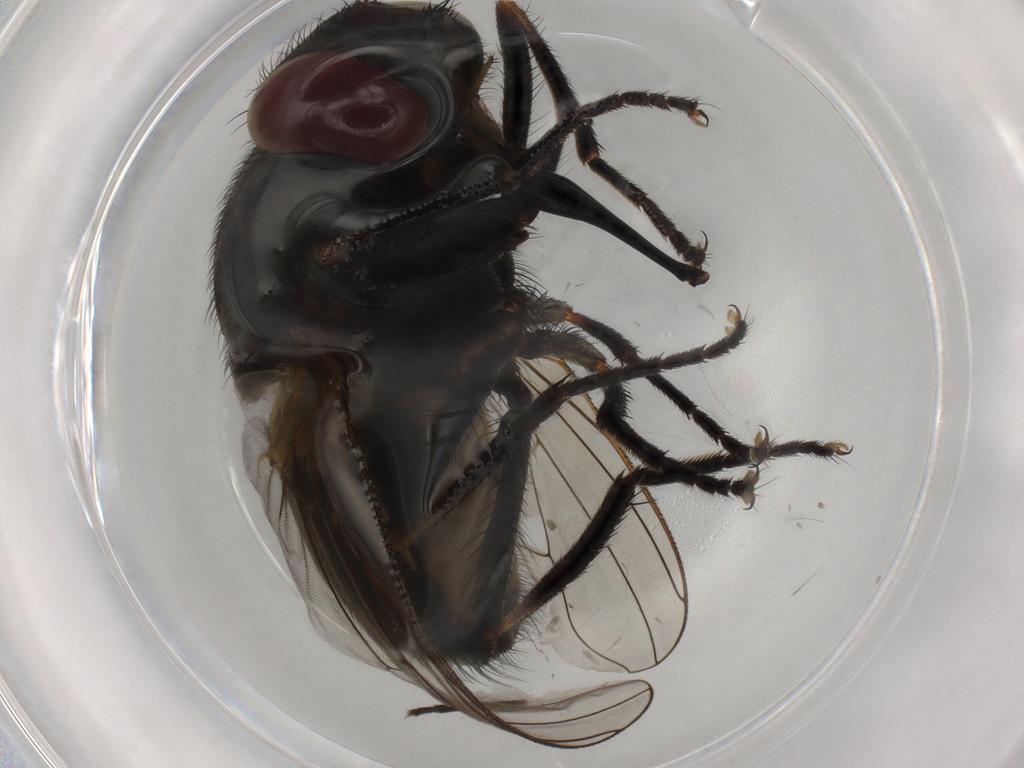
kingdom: Animalia
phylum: Arthropoda
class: Insecta
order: Diptera
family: Muscidae
